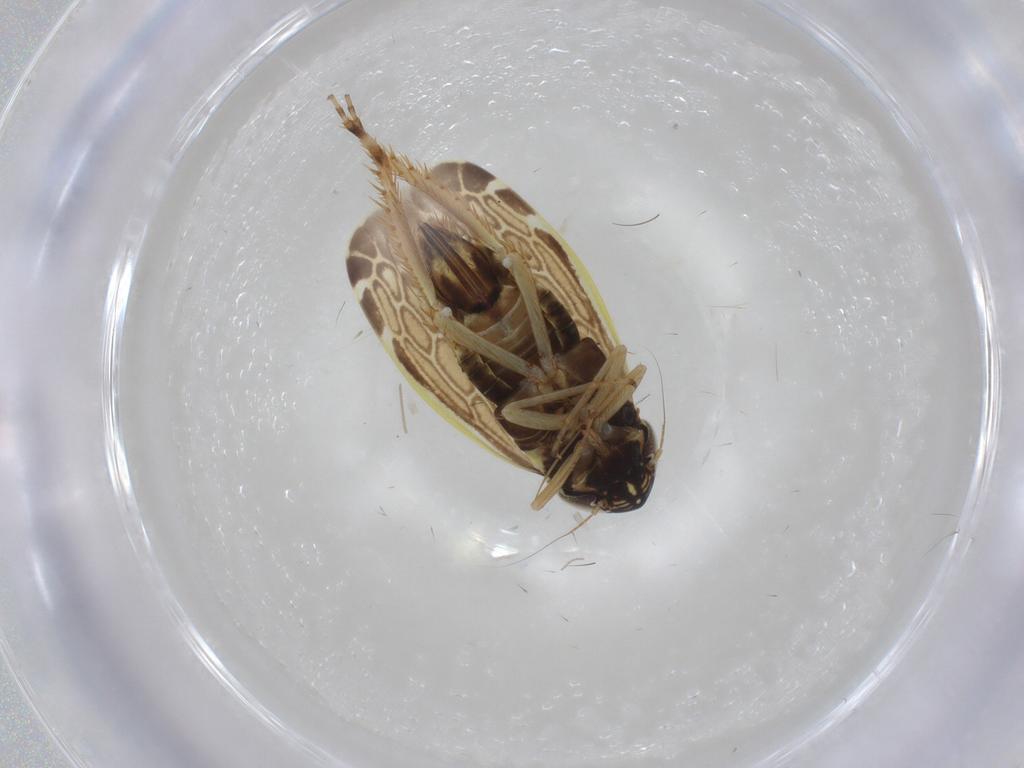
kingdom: Animalia
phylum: Arthropoda
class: Insecta
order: Hemiptera
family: Cicadellidae
